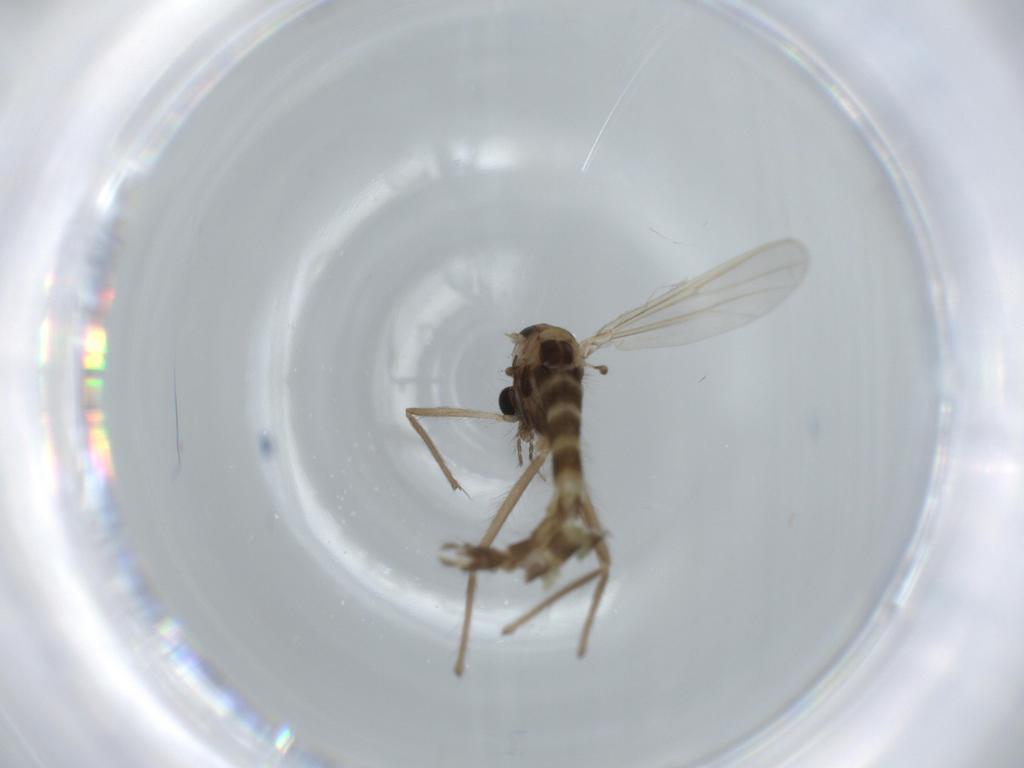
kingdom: Animalia
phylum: Arthropoda
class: Insecta
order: Diptera
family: Chironomidae
